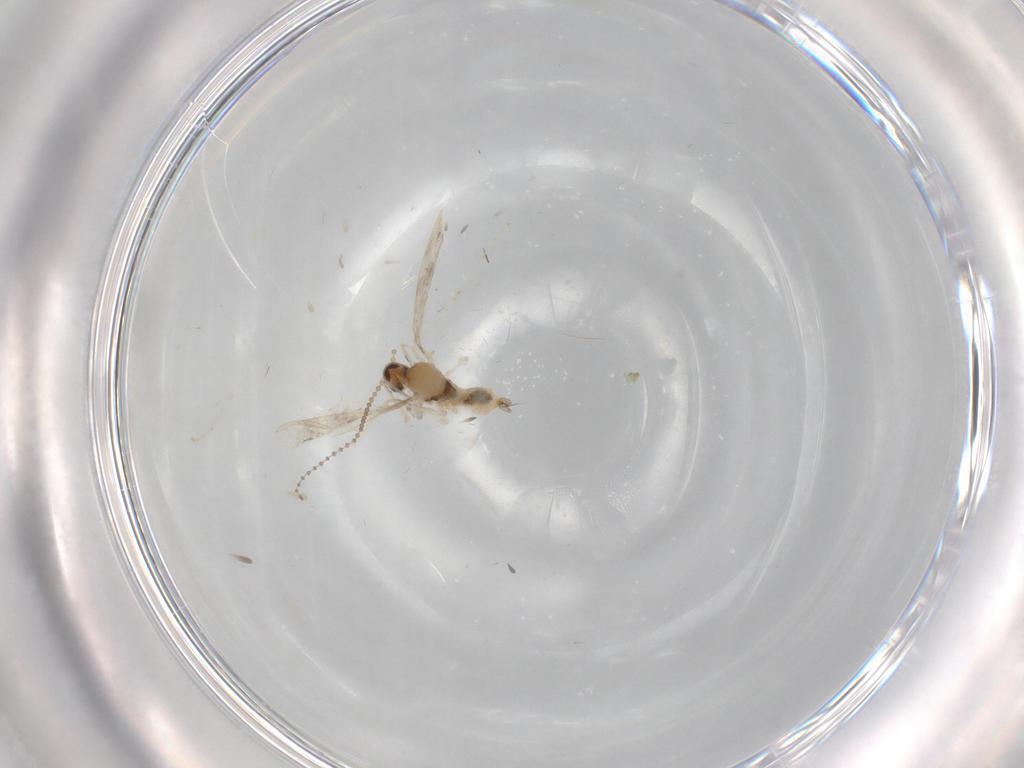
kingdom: Animalia
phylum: Arthropoda
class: Insecta
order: Diptera
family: Cecidomyiidae
